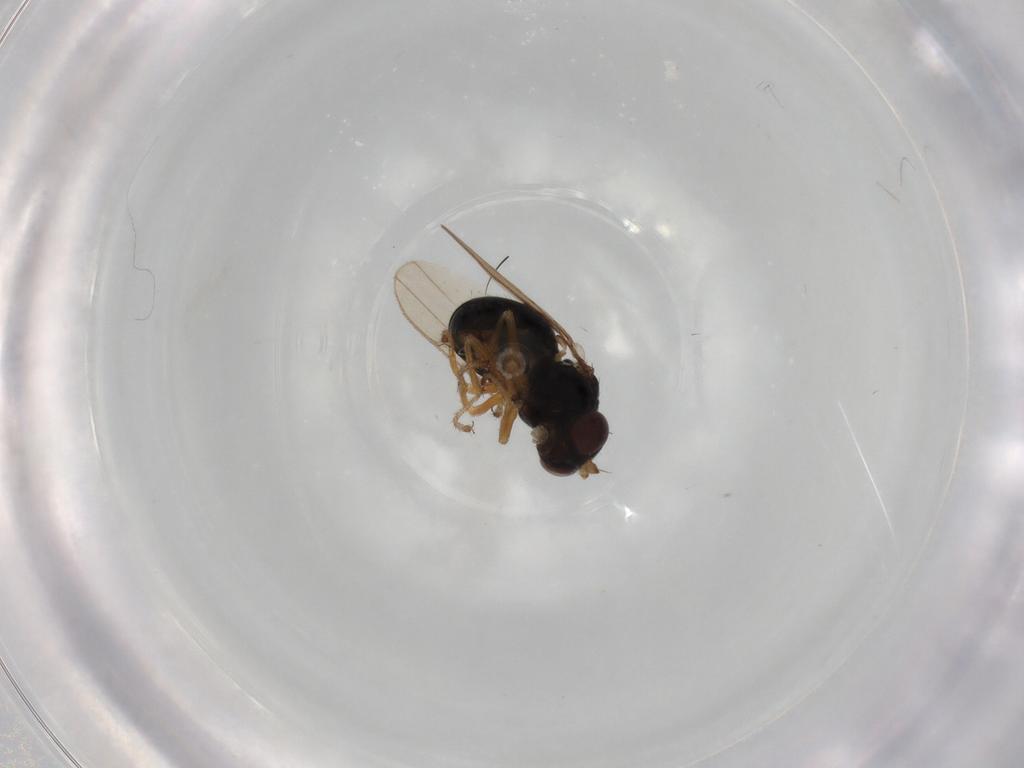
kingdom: Animalia
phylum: Arthropoda
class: Insecta
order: Diptera
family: Ephydridae
